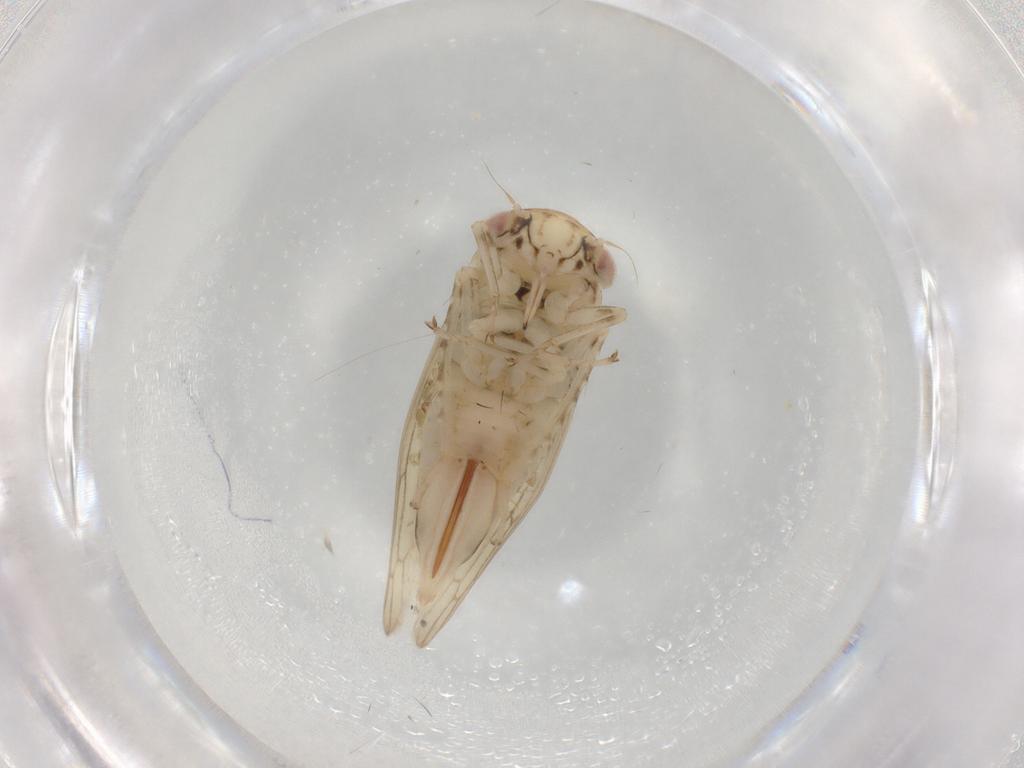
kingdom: Animalia
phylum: Arthropoda
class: Insecta
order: Hemiptera
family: Cicadellidae
